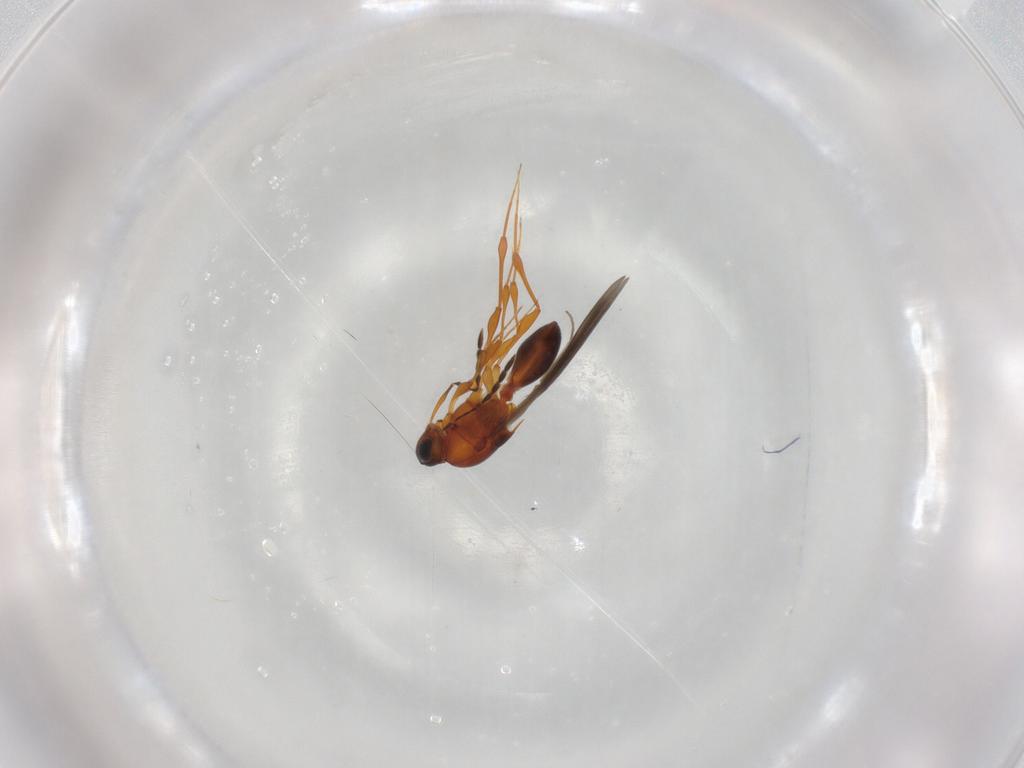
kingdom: Animalia
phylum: Arthropoda
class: Insecta
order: Hymenoptera
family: Platygastridae
